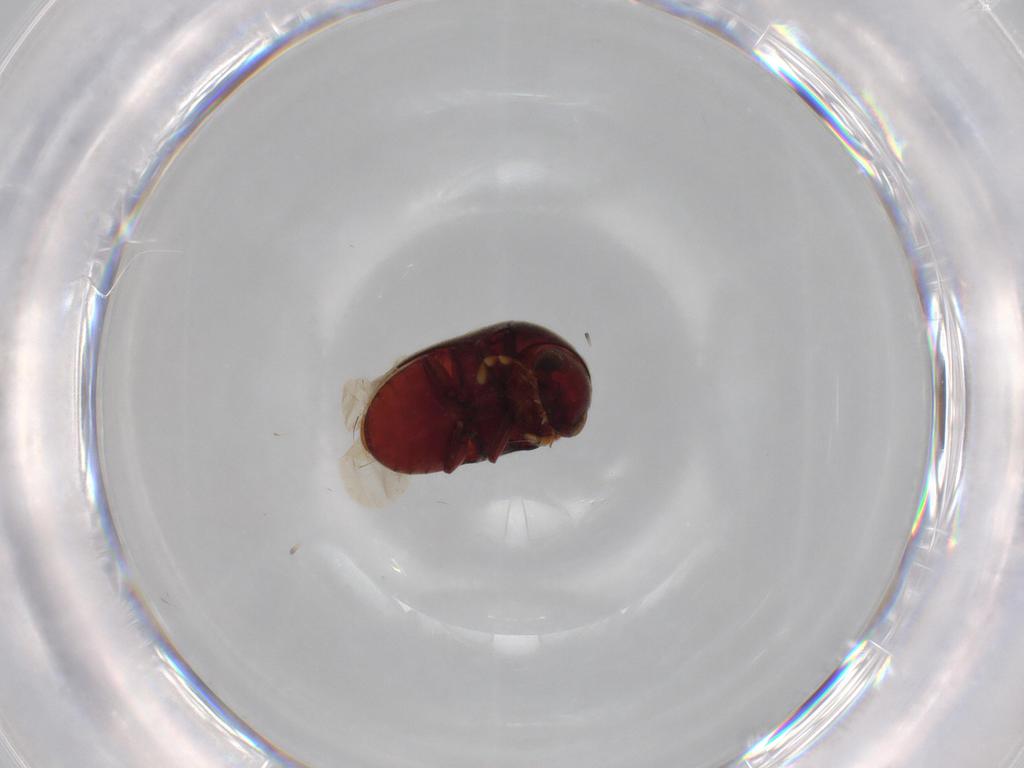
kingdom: Animalia
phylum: Arthropoda
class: Insecta
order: Coleoptera
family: Ptinidae
